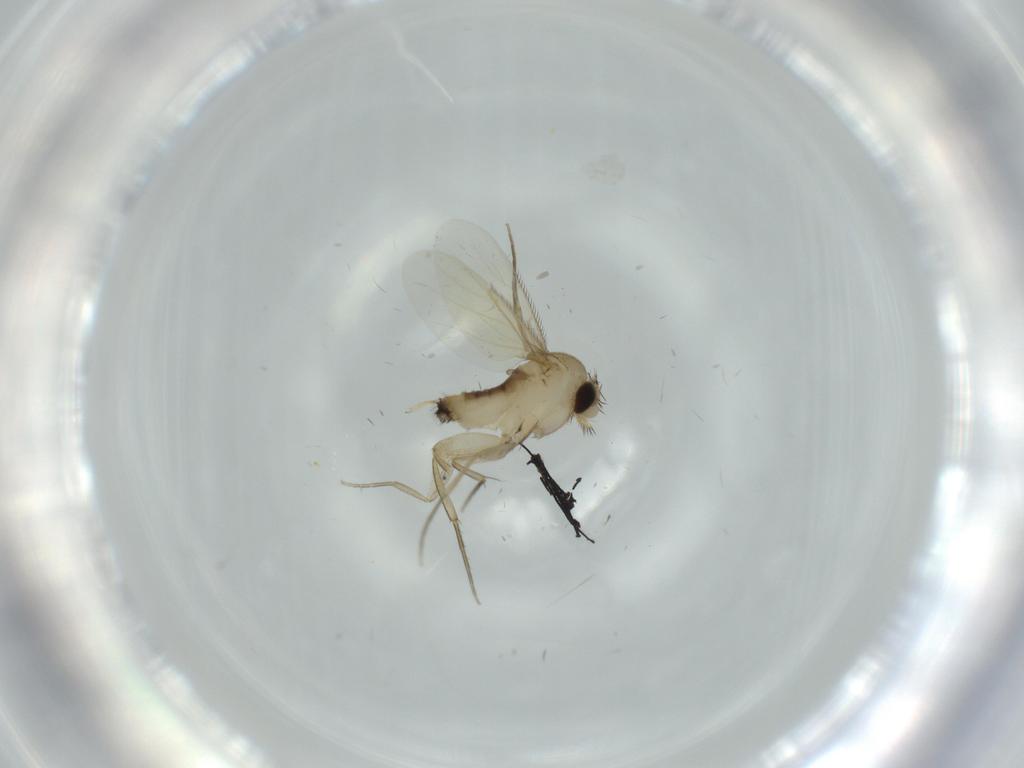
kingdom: Animalia
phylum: Arthropoda
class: Insecta
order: Diptera
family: Phoridae
